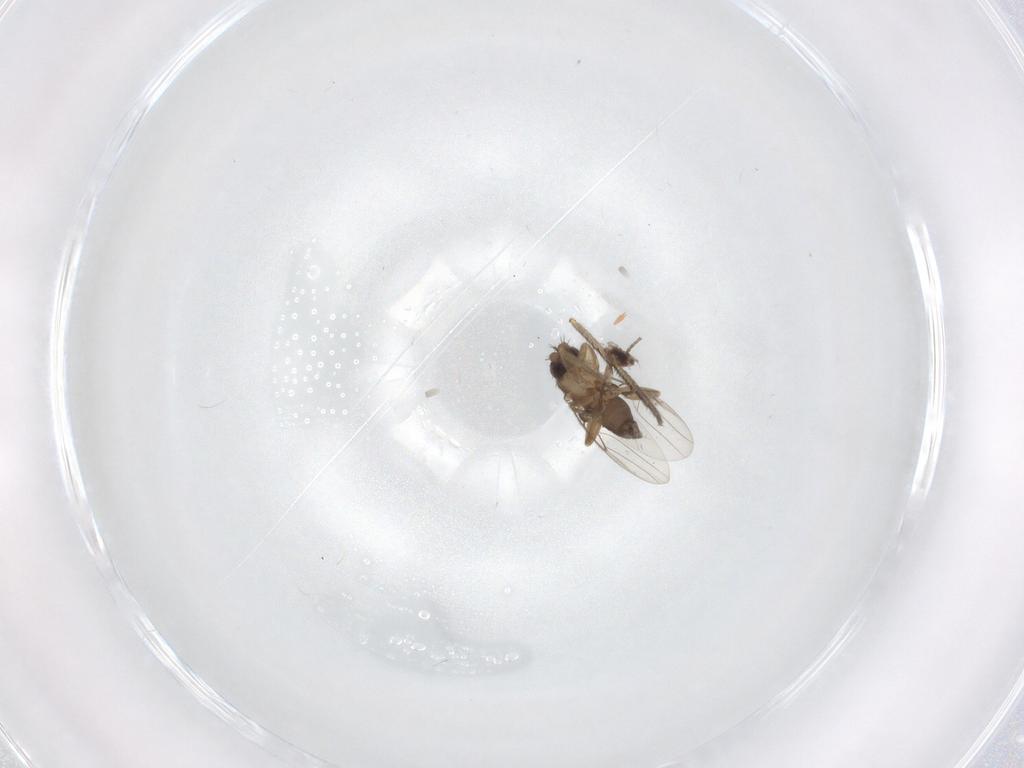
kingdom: Animalia
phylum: Arthropoda
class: Insecta
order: Diptera
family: Phoridae
